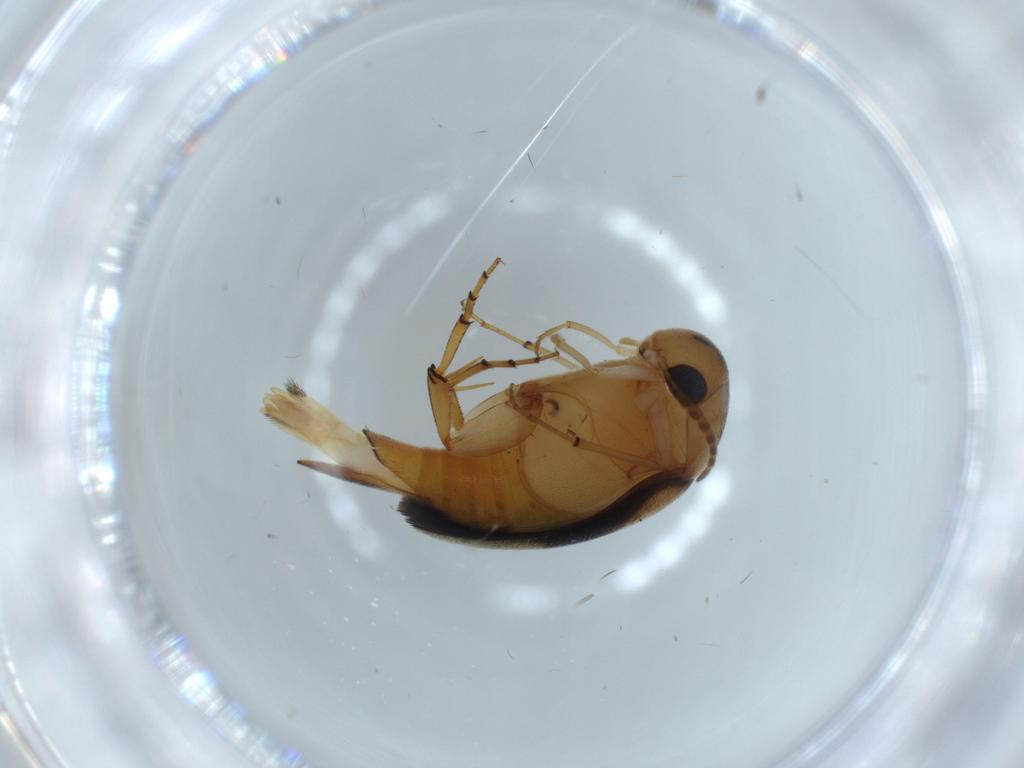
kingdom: Animalia
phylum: Arthropoda
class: Insecta
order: Coleoptera
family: Mordellidae
